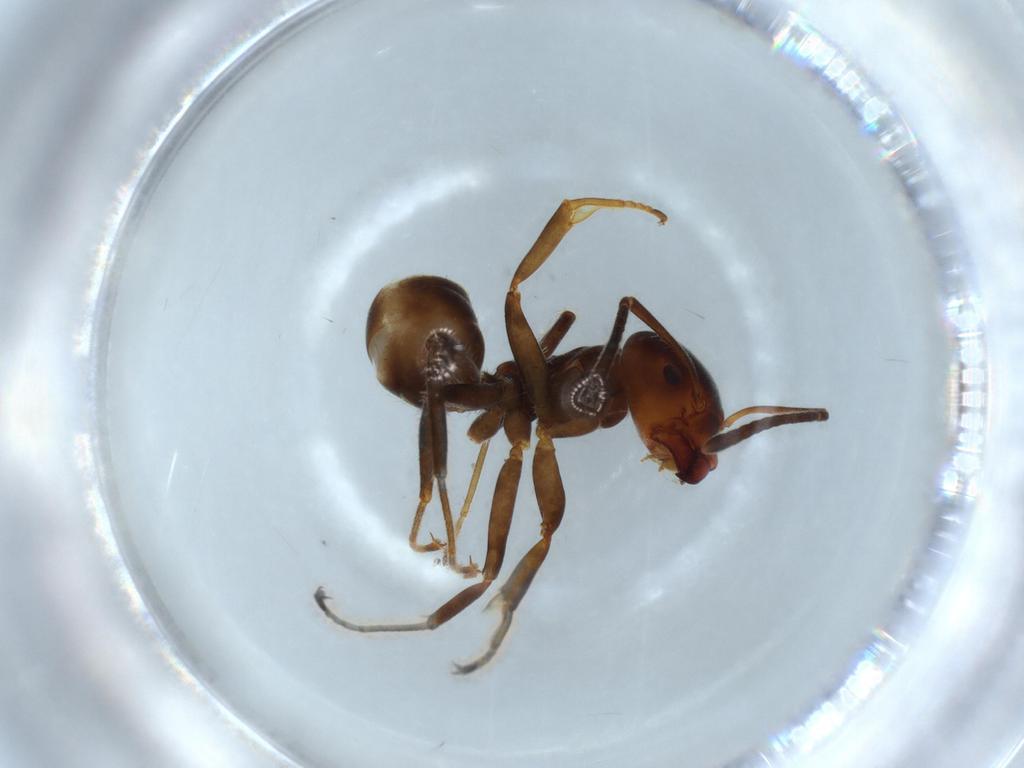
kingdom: Animalia
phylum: Arthropoda
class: Insecta
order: Hymenoptera
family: Formicidae
